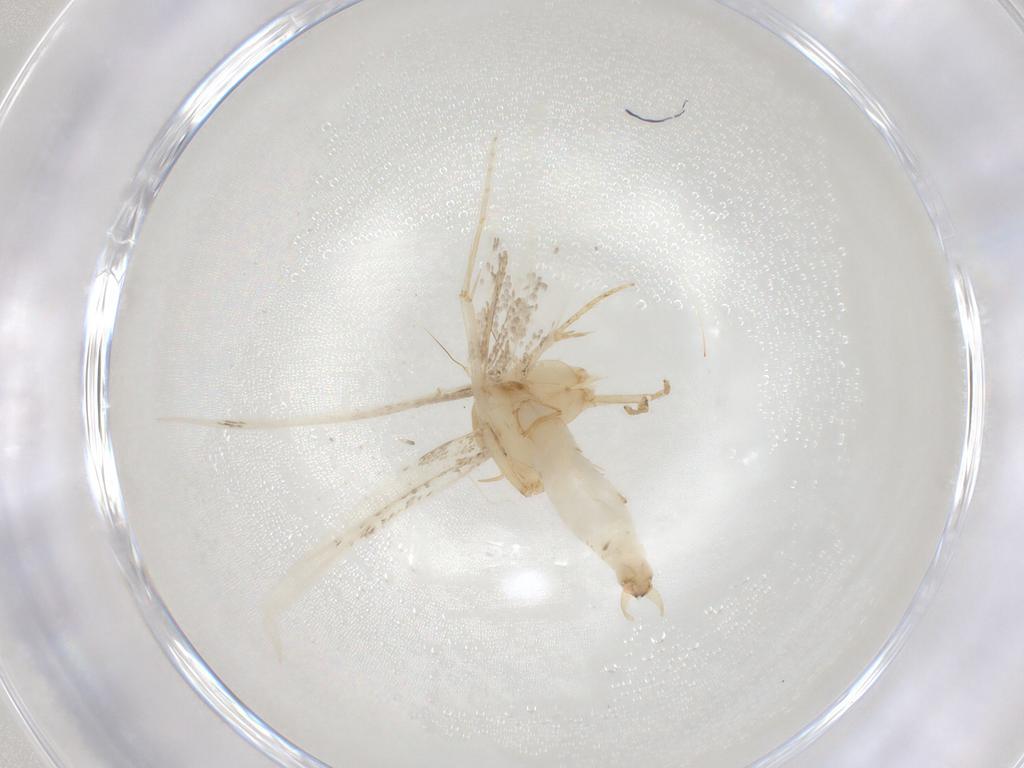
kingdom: Animalia
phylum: Arthropoda
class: Insecta
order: Lepidoptera
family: Tineidae
